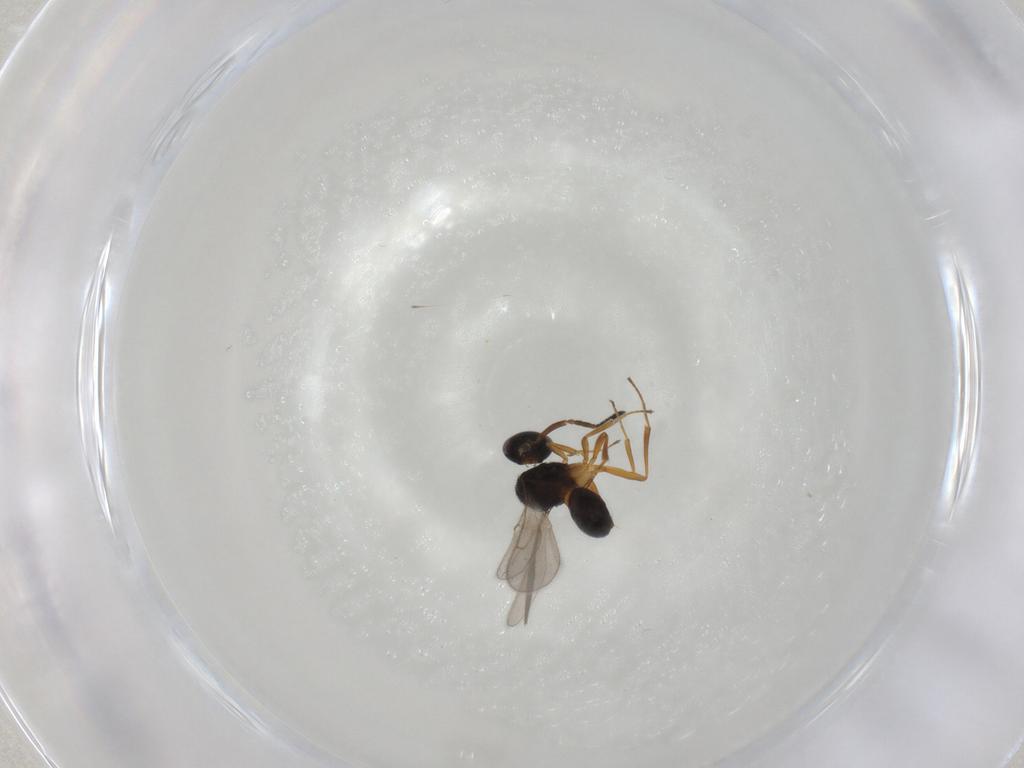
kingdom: Animalia
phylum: Arthropoda
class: Insecta
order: Hymenoptera
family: Scelionidae
